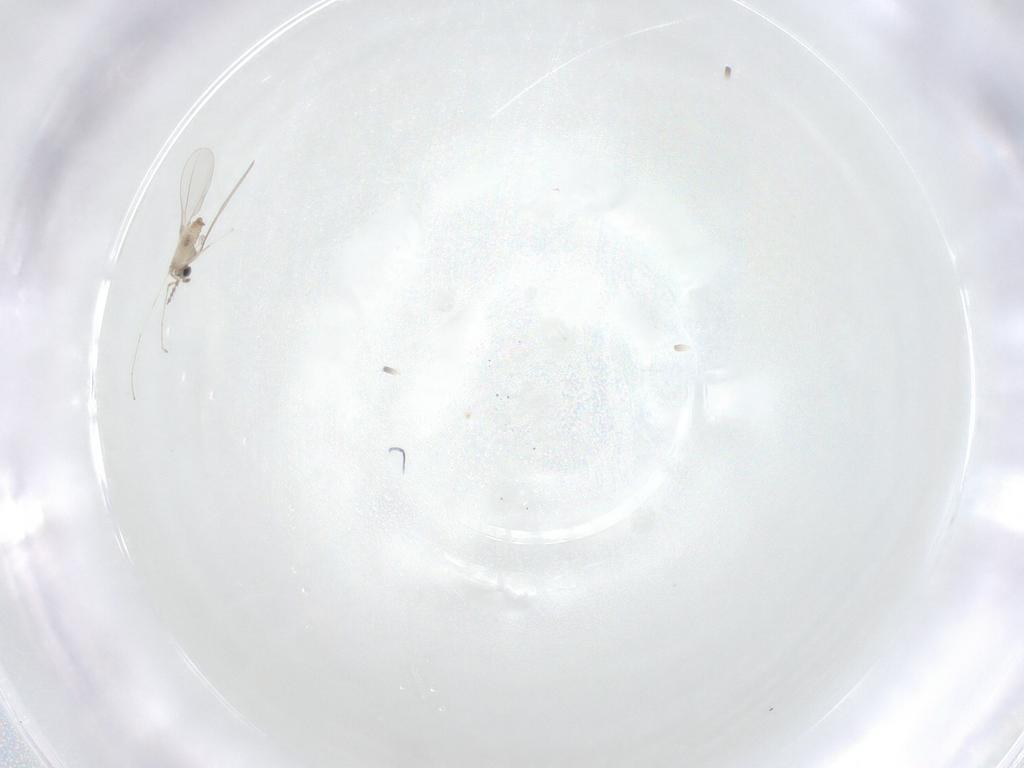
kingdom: Animalia
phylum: Arthropoda
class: Insecta
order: Diptera
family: Cecidomyiidae
